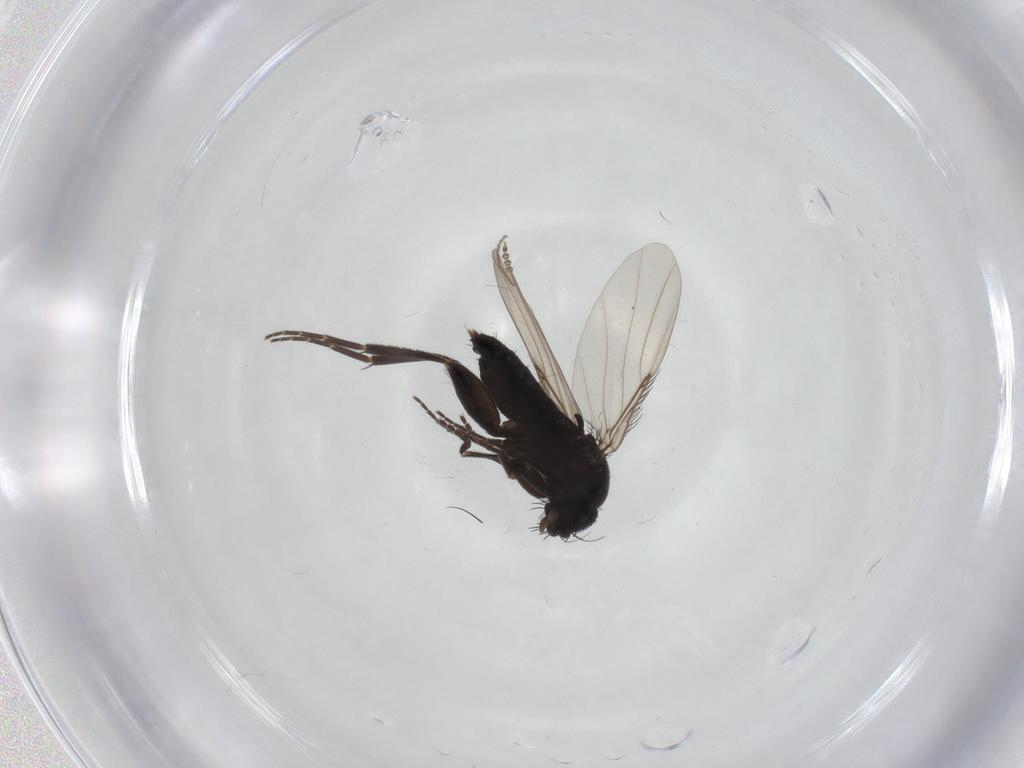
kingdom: Animalia
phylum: Arthropoda
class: Insecta
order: Diptera
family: Phoridae
